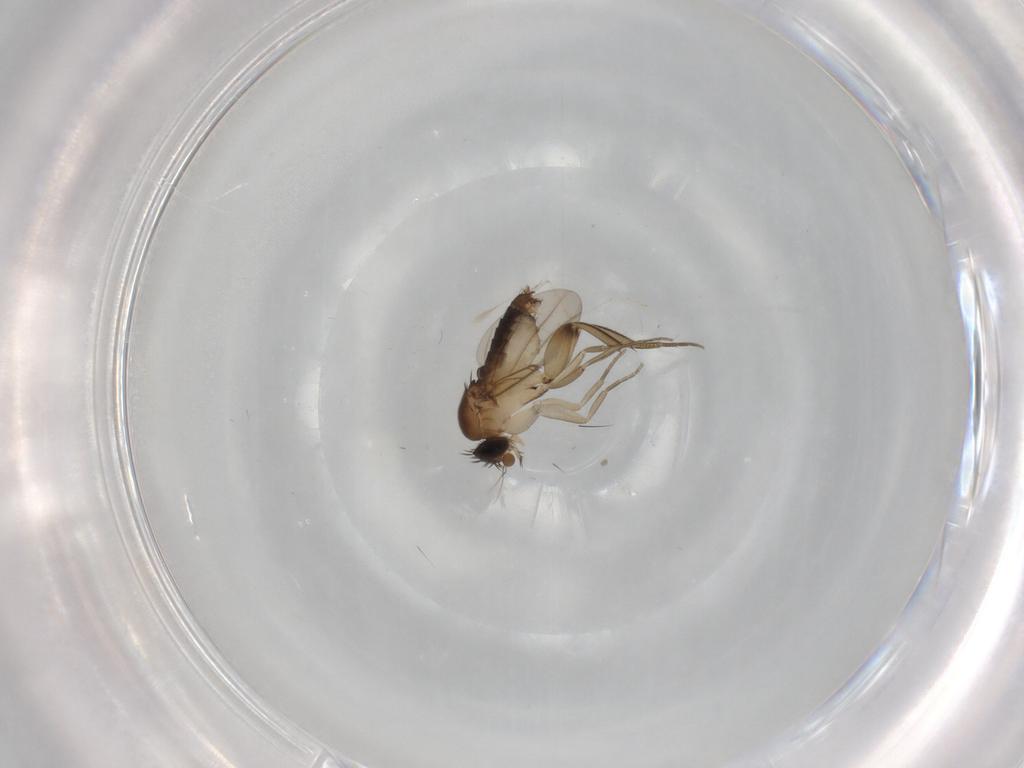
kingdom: Animalia
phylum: Arthropoda
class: Insecta
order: Diptera
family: Phoridae
